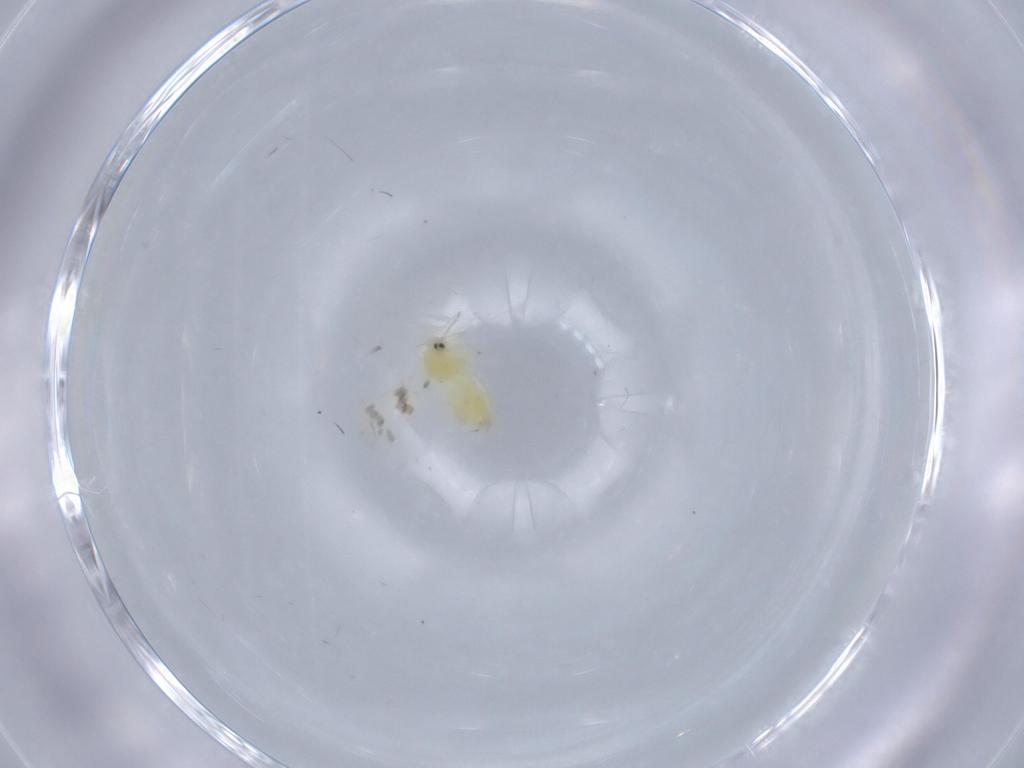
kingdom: Animalia
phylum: Arthropoda
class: Insecta
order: Hemiptera
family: Aleyrodidae
